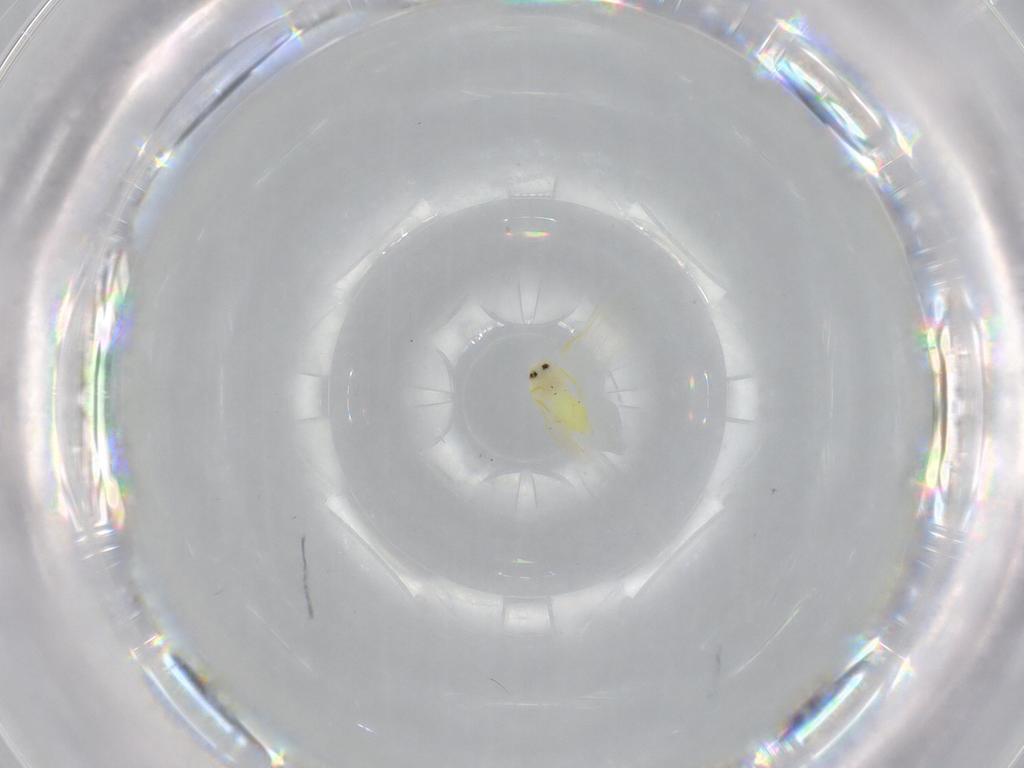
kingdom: Animalia
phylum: Arthropoda
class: Insecta
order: Hemiptera
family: Aleyrodidae
